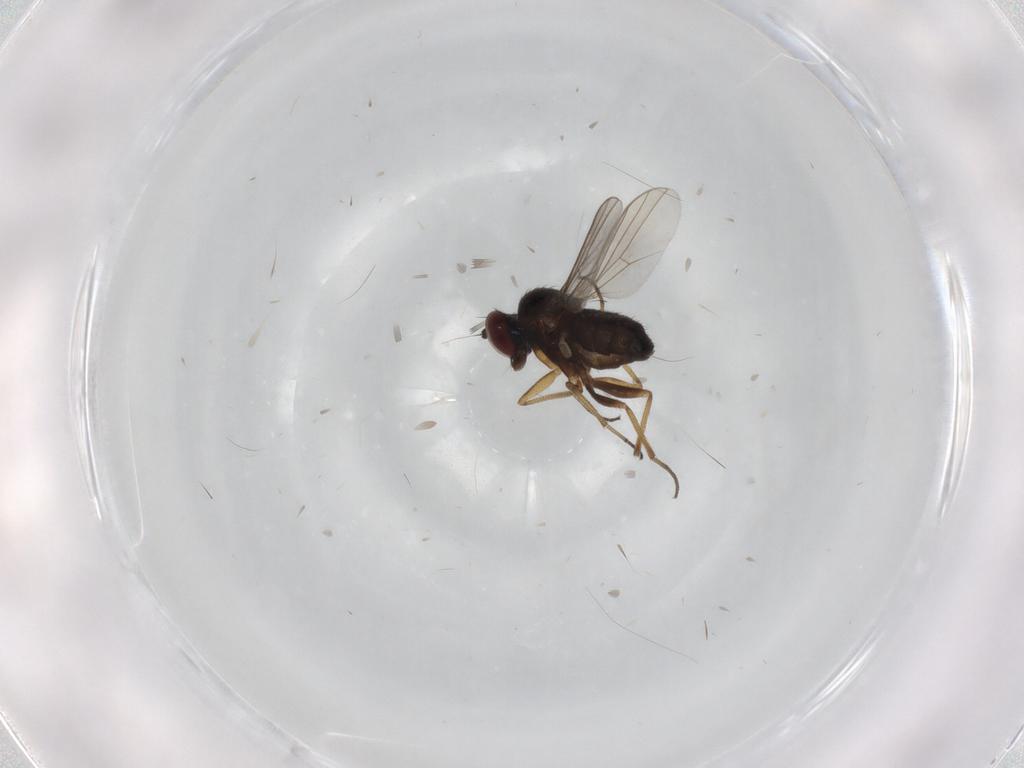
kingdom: Animalia
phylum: Arthropoda
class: Insecta
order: Diptera
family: Dolichopodidae
